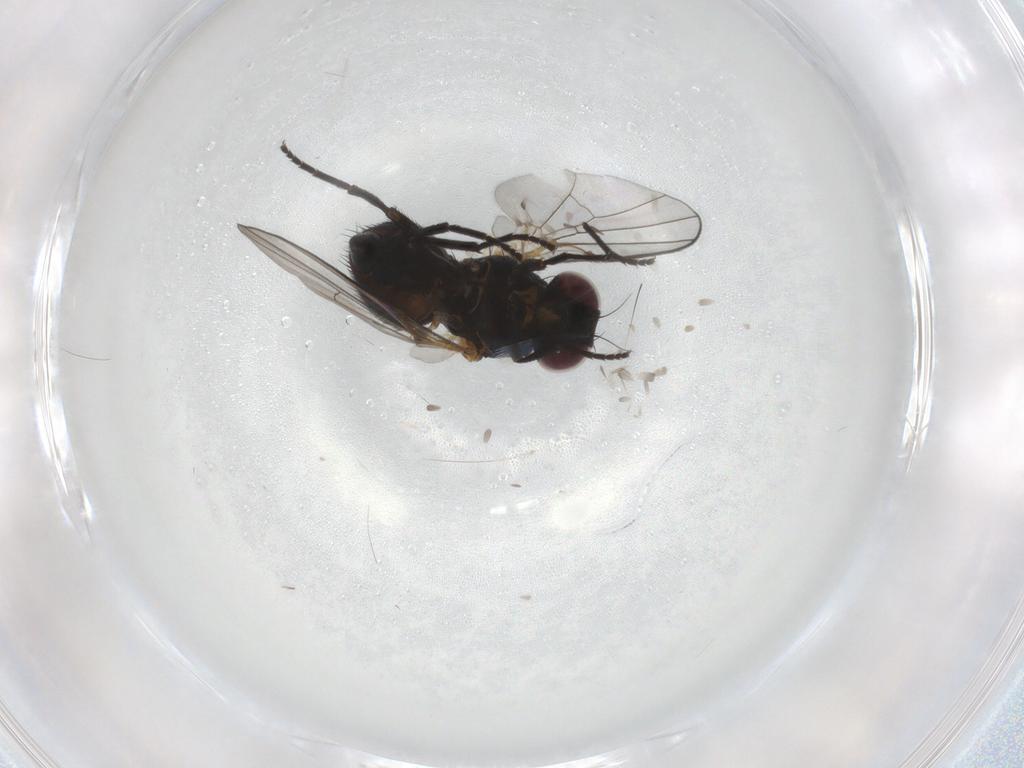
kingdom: Animalia
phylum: Arthropoda
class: Insecta
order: Diptera
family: Agromyzidae
